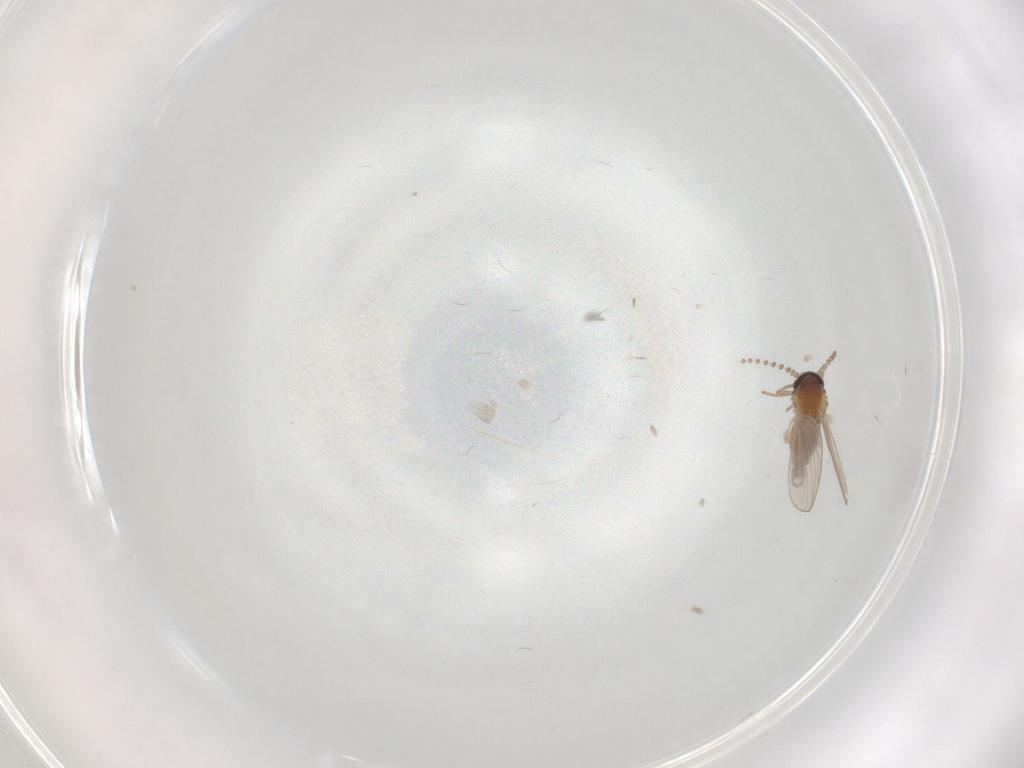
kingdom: Animalia
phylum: Arthropoda
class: Insecta
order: Diptera
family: Psychodidae
